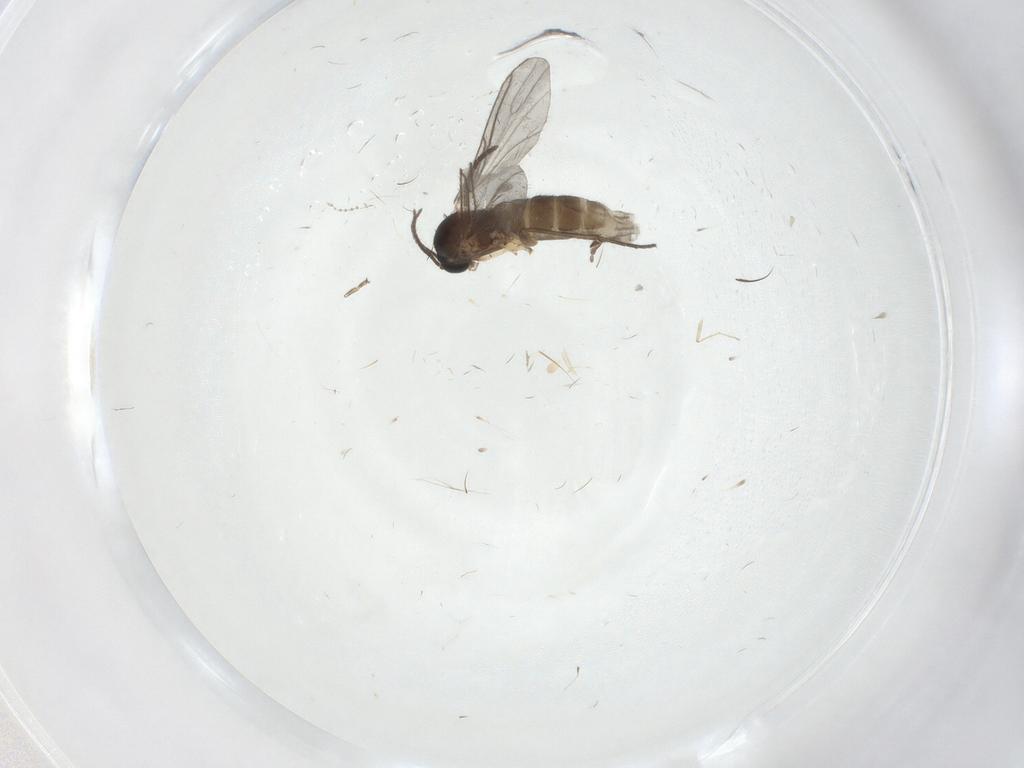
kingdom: Animalia
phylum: Arthropoda
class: Insecta
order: Diptera
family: Sciaridae
